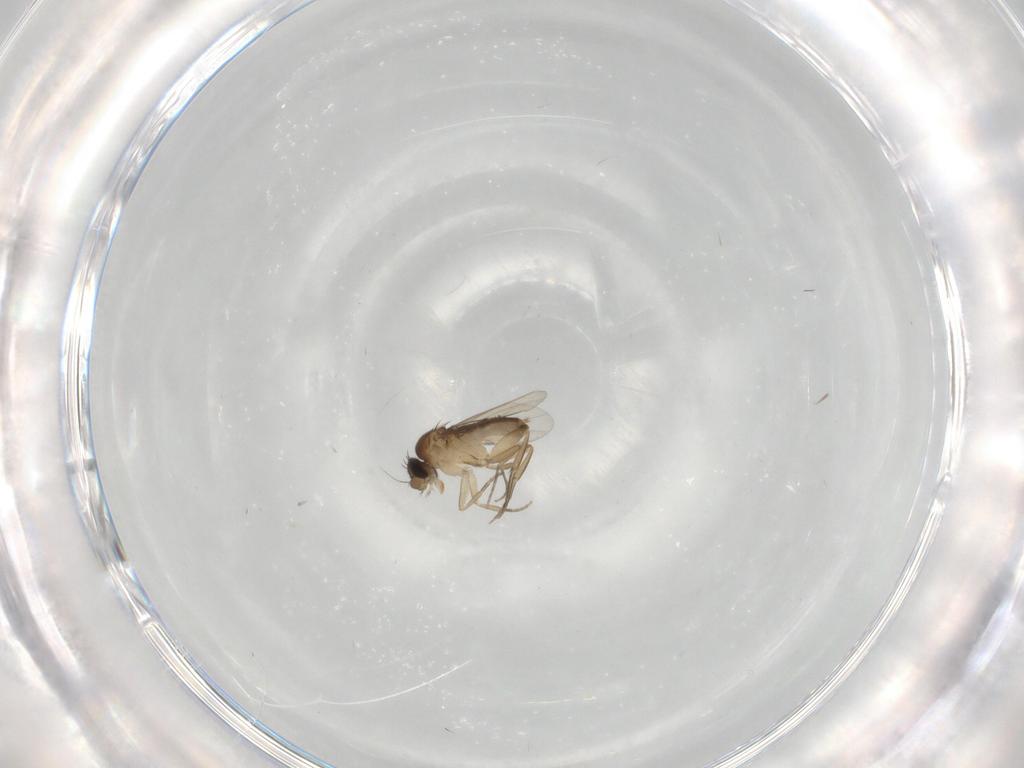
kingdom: Animalia
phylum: Arthropoda
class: Insecta
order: Diptera
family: Phoridae
